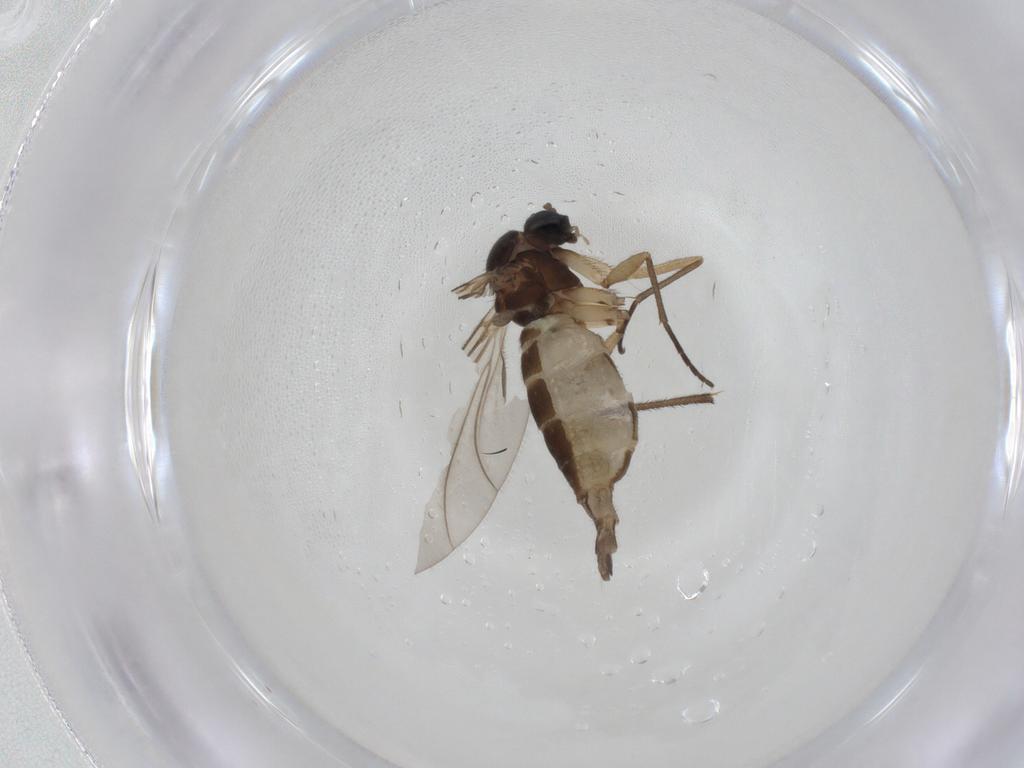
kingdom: Animalia
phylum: Arthropoda
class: Insecta
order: Diptera
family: Sciaridae
